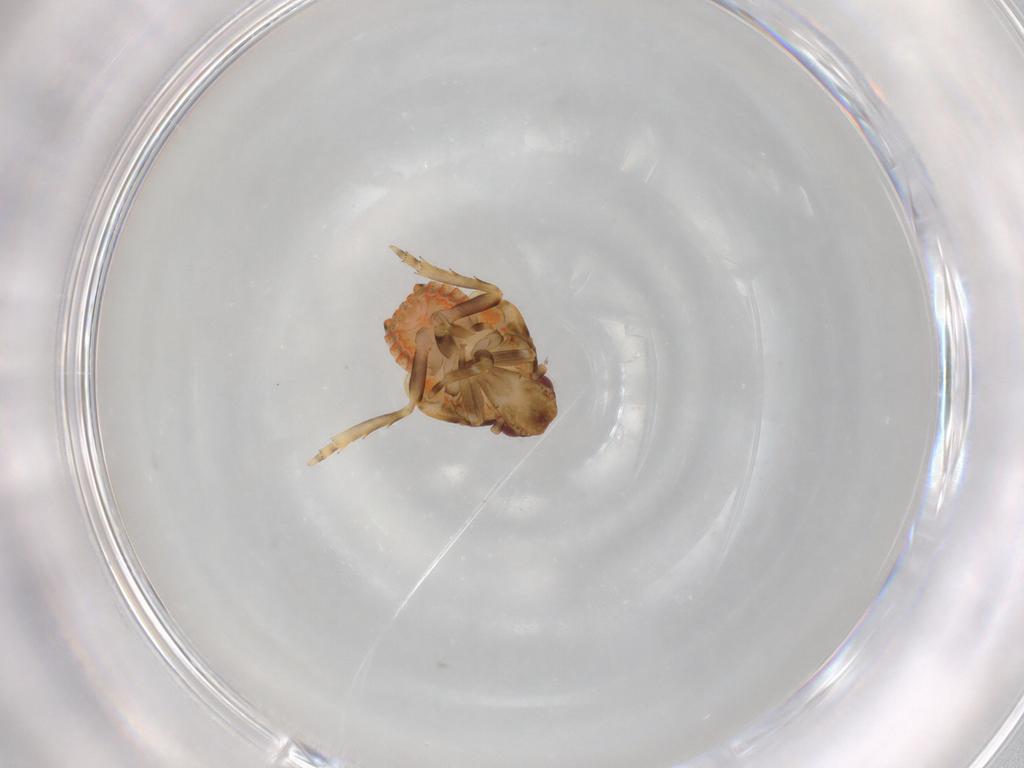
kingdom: Animalia
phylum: Arthropoda
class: Insecta
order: Hemiptera
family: Flatidae
